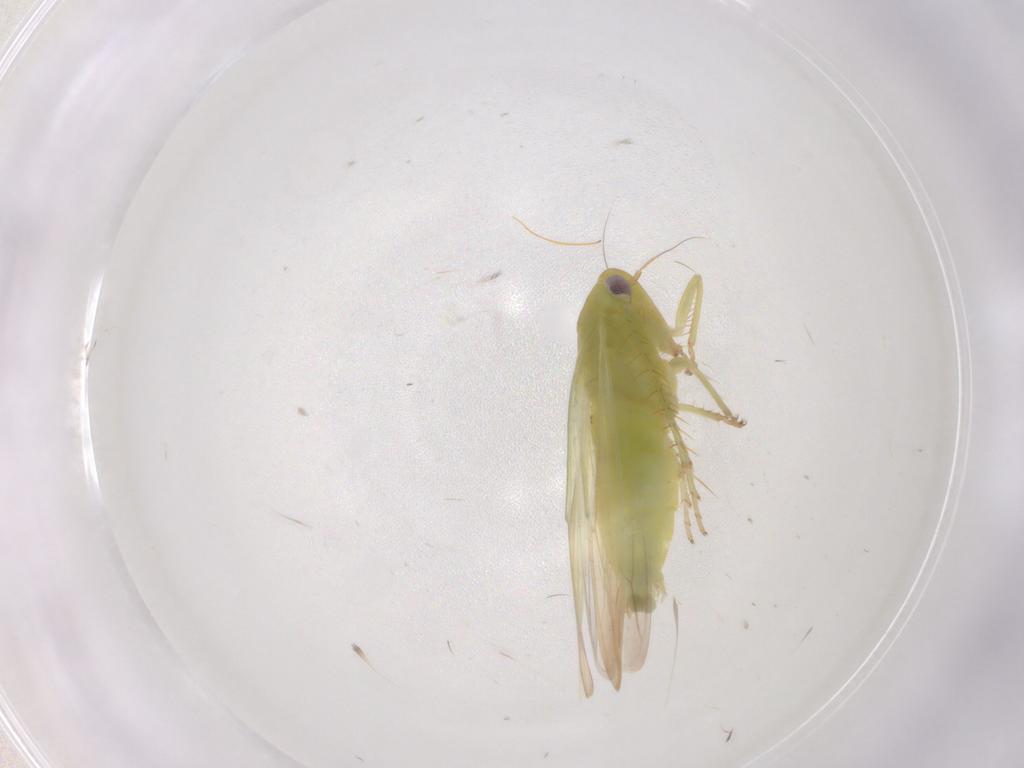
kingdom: Animalia
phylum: Arthropoda
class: Insecta
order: Hemiptera
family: Cicadellidae
